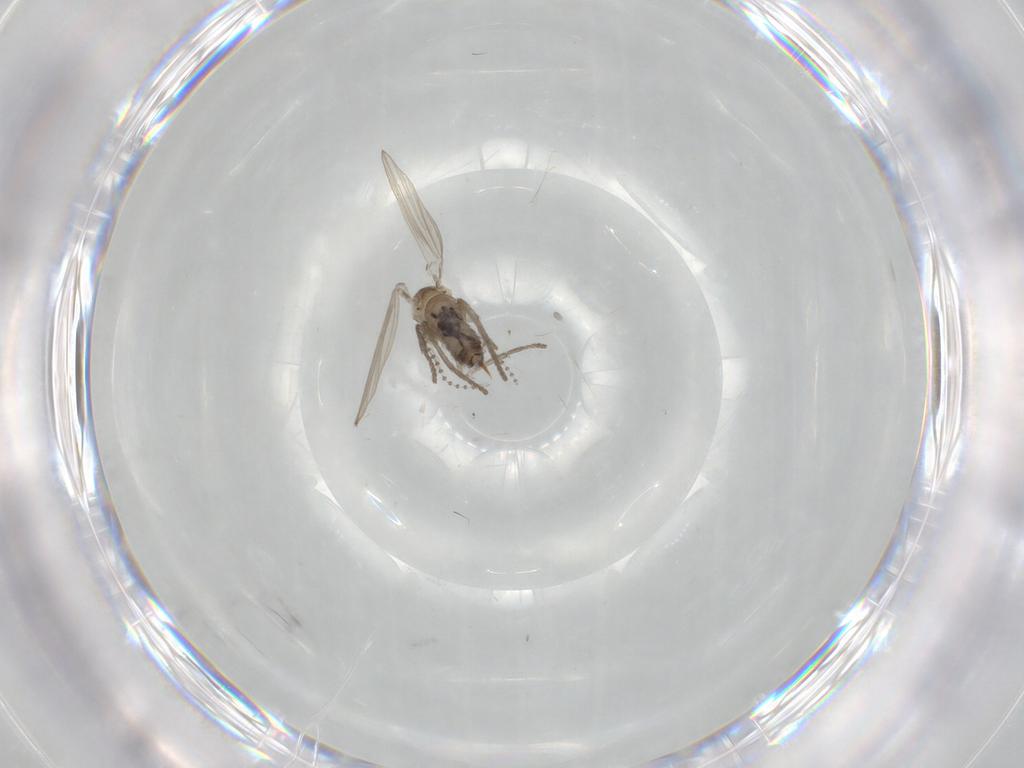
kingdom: Animalia
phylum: Arthropoda
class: Insecta
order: Diptera
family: Psychodidae
